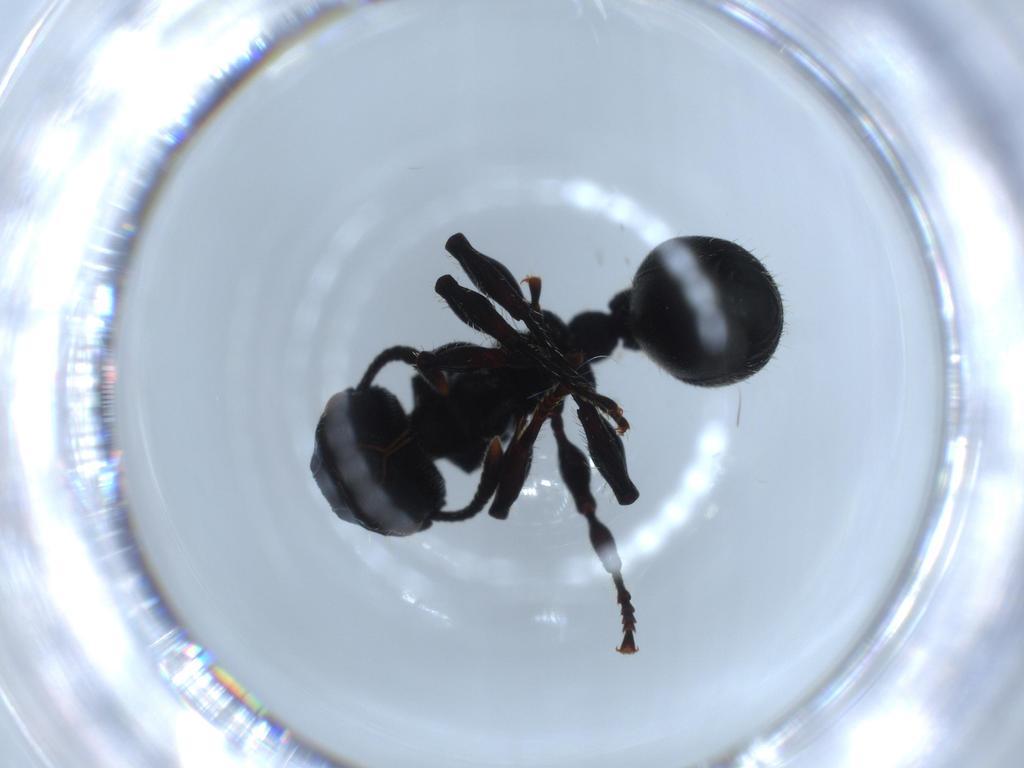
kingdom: Animalia
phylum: Arthropoda
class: Insecta
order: Hymenoptera
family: Formicidae
